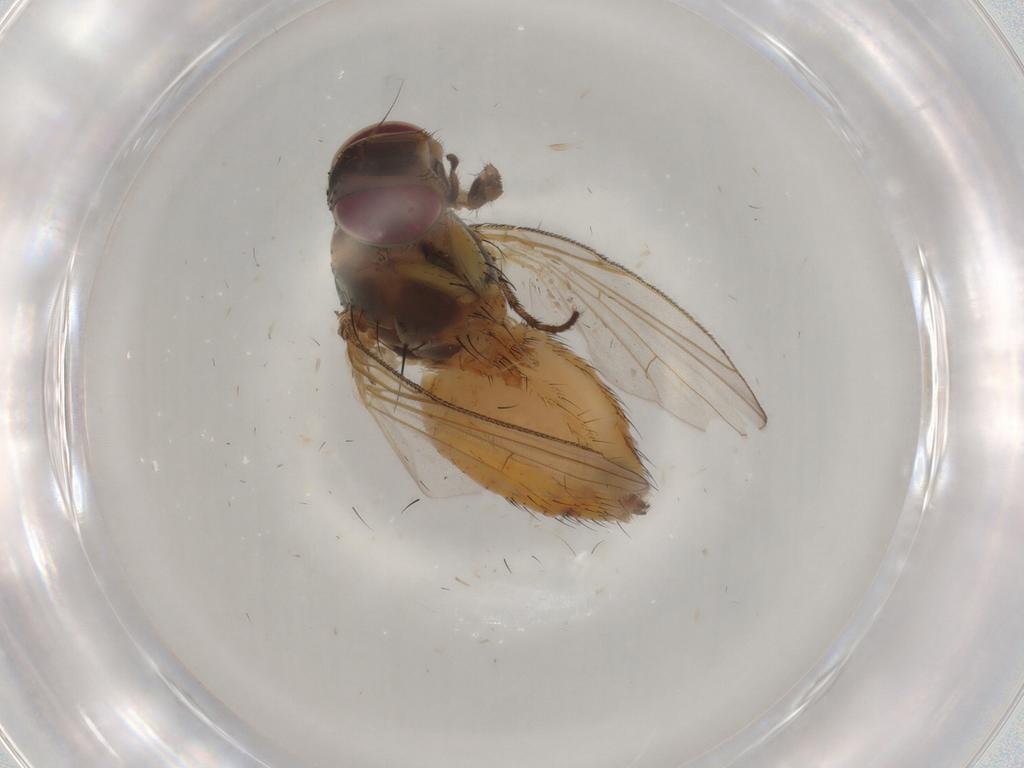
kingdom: Animalia
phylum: Arthropoda
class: Insecta
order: Diptera
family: Muscidae
